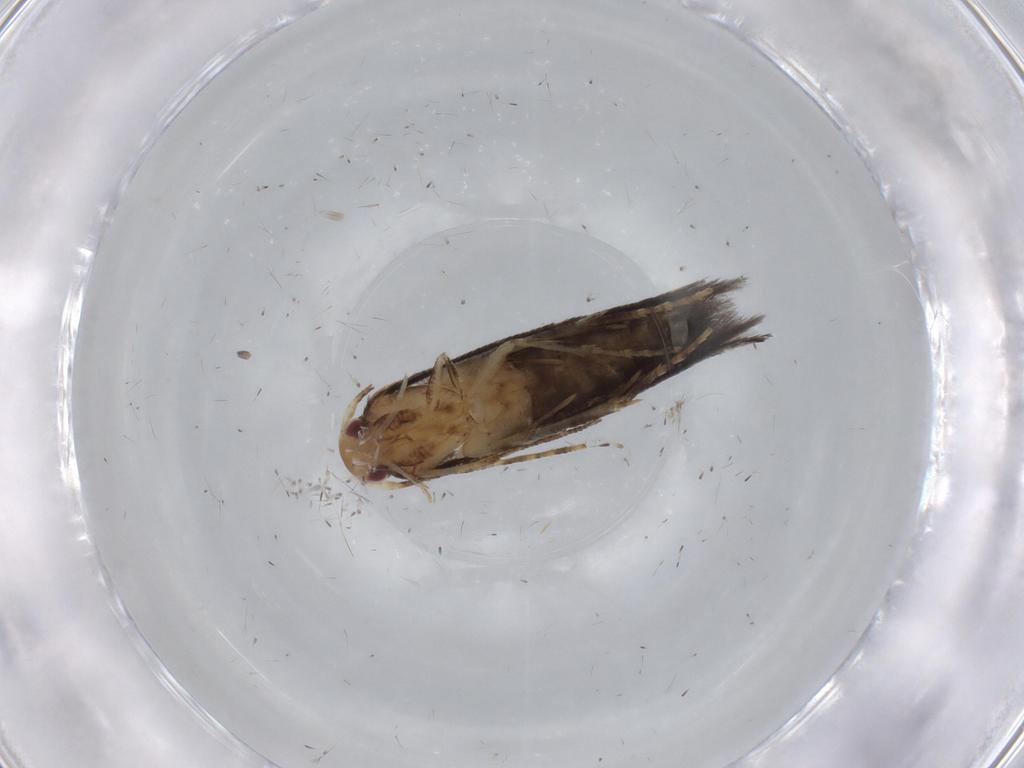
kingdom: Animalia
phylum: Arthropoda
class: Insecta
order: Lepidoptera
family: Momphidae
